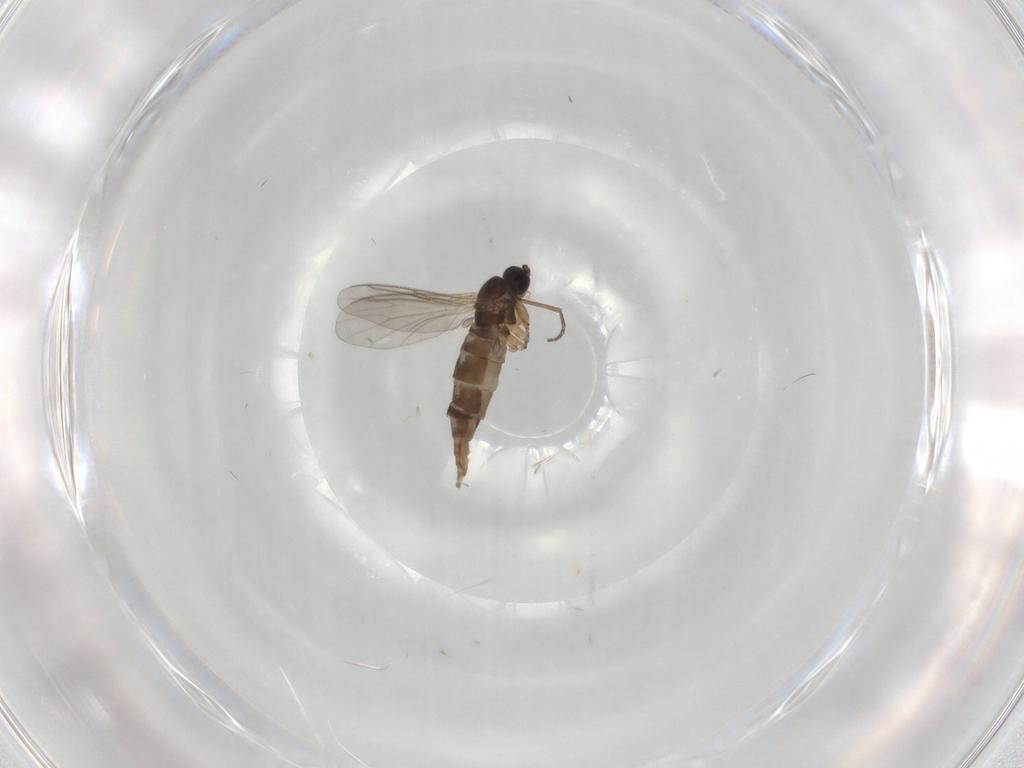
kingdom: Animalia
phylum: Arthropoda
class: Insecta
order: Diptera
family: Sciaridae
